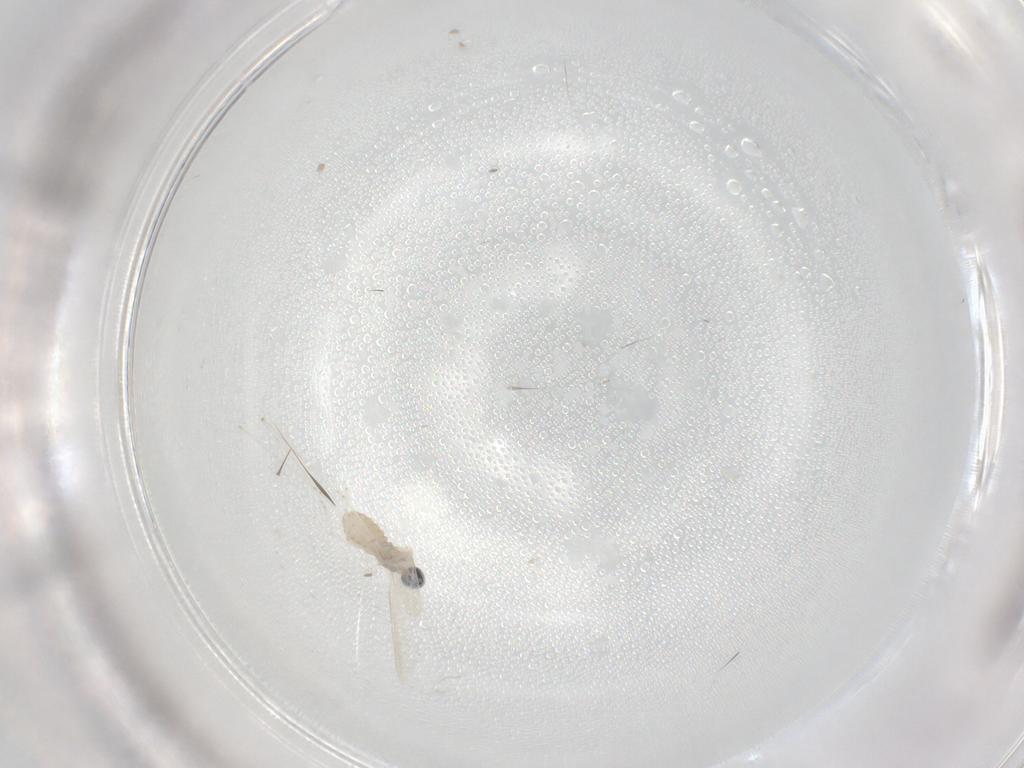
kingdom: Animalia
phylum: Arthropoda
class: Insecta
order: Diptera
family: Cecidomyiidae
